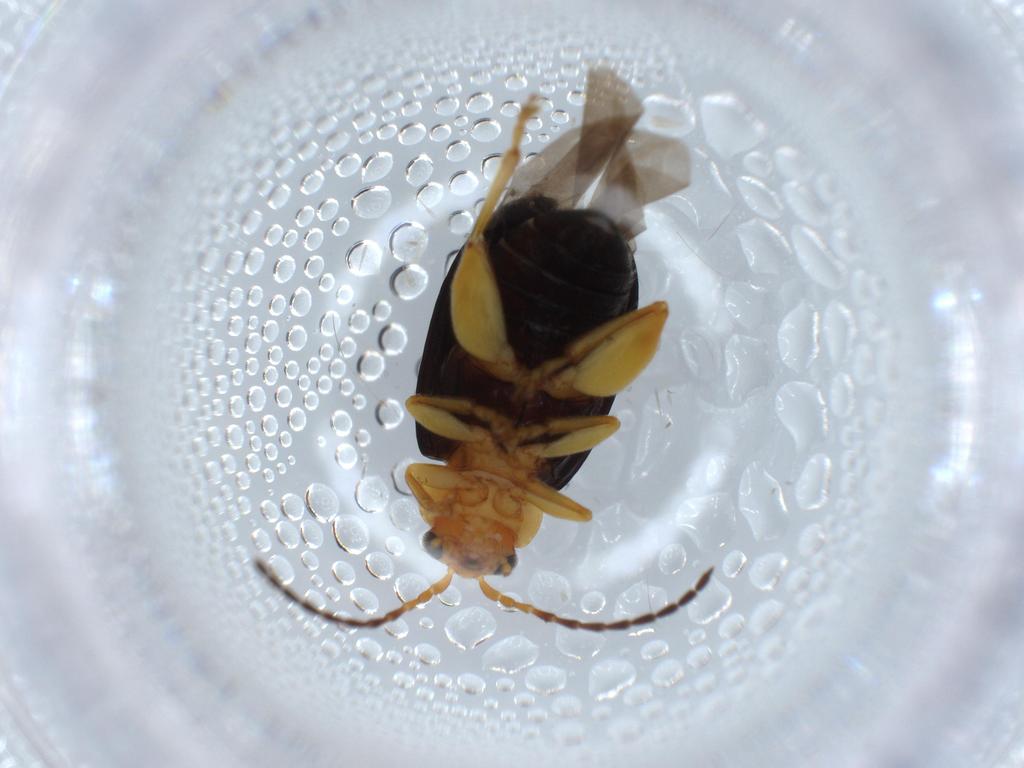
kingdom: Animalia
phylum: Arthropoda
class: Insecta
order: Coleoptera
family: Chrysomelidae
